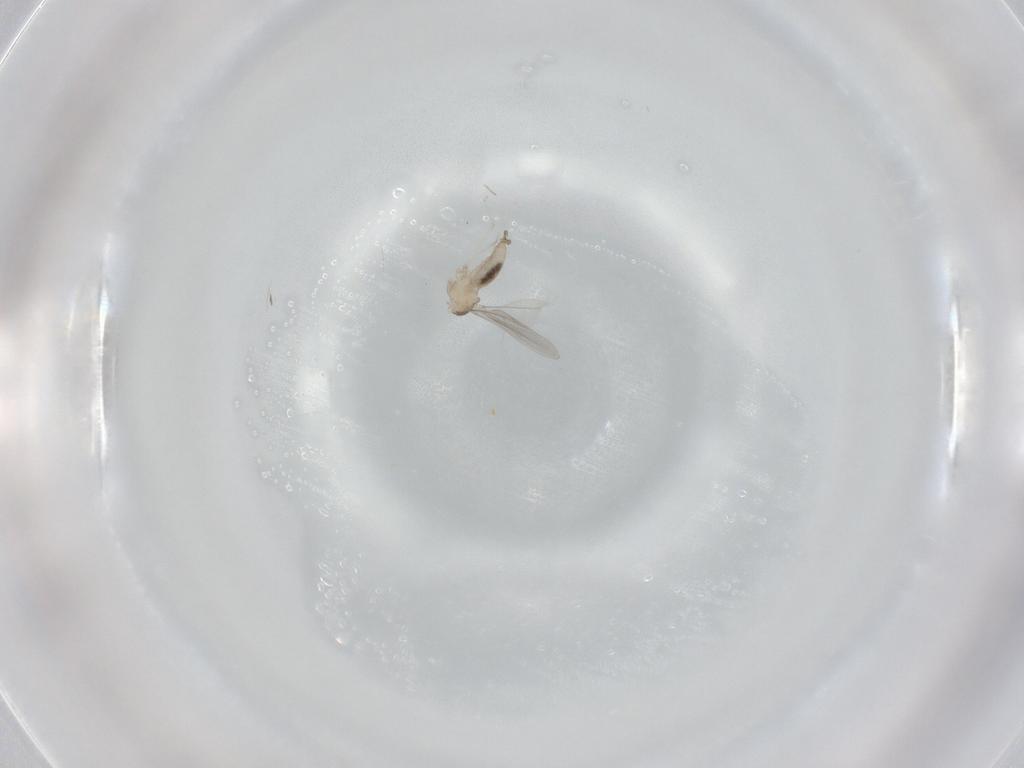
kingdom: Animalia
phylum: Arthropoda
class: Insecta
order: Diptera
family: Cecidomyiidae
